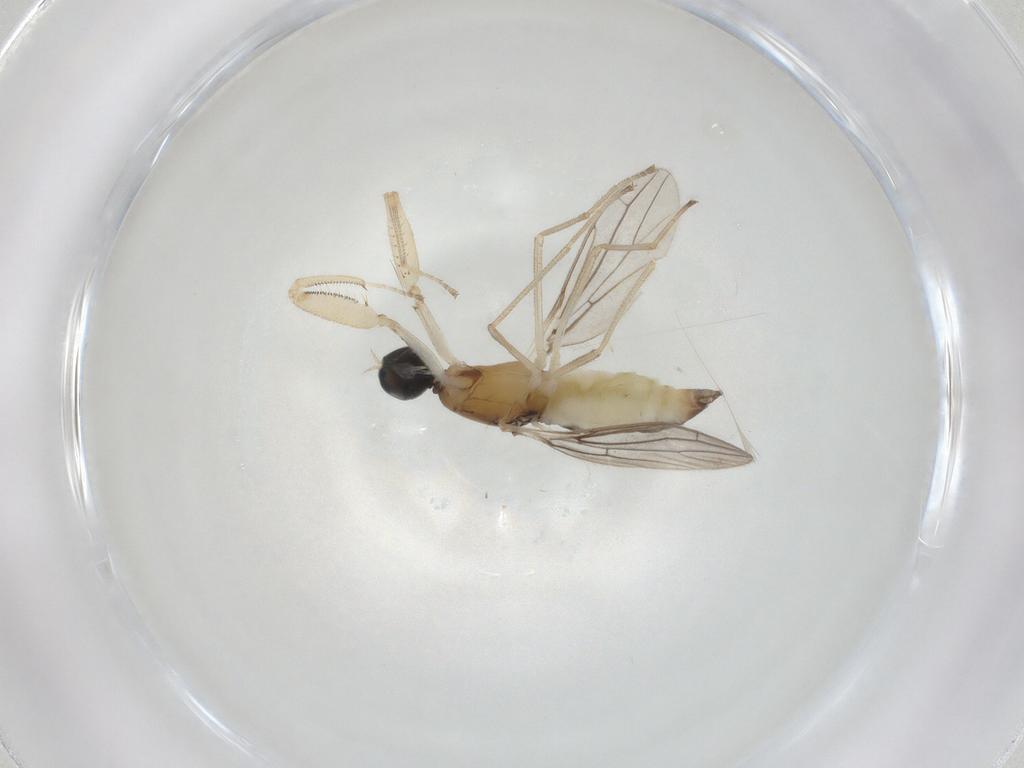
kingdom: Animalia
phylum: Arthropoda
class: Insecta
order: Diptera
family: Empididae
